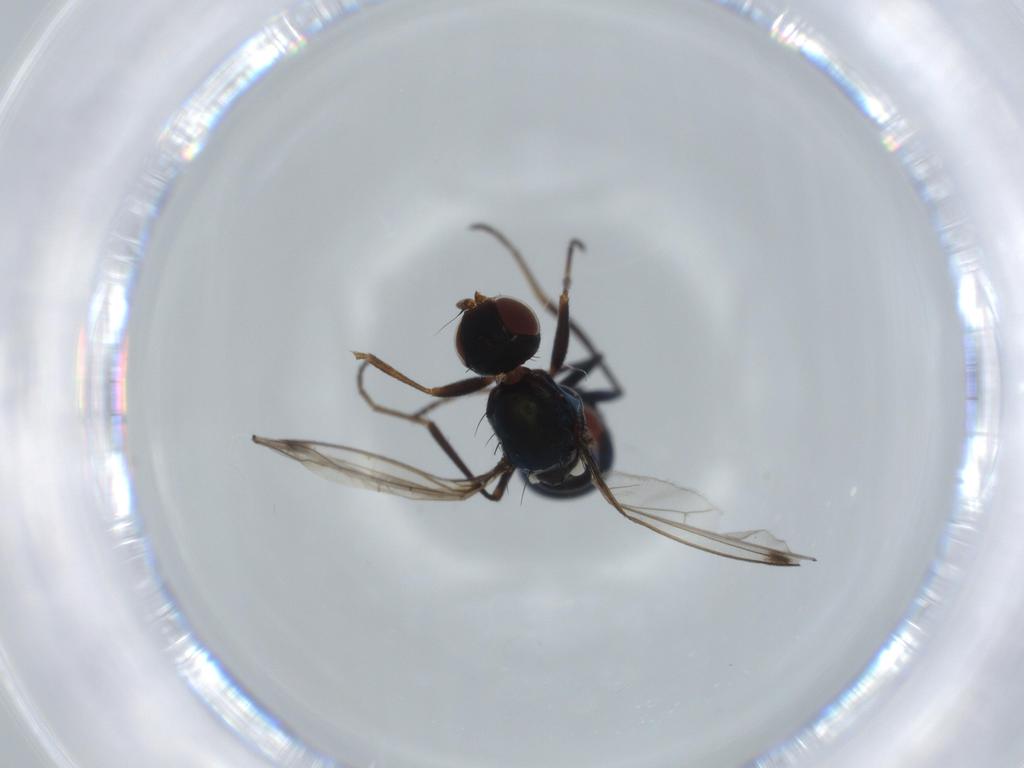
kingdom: Animalia
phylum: Arthropoda
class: Insecta
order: Diptera
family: Sepsidae
